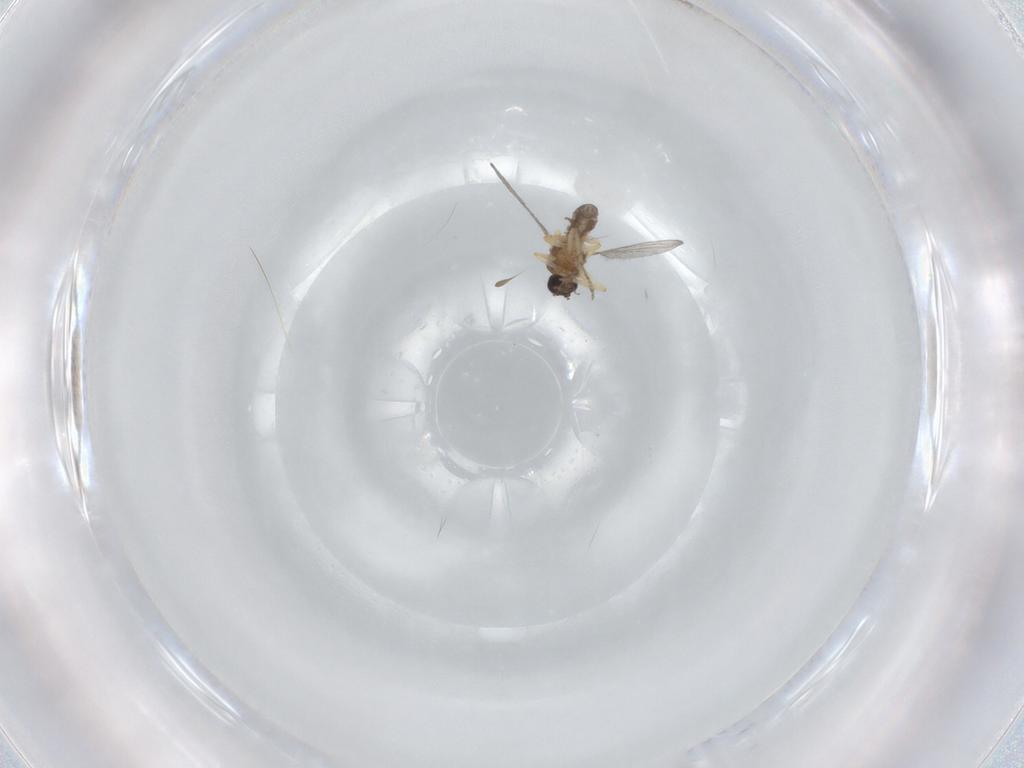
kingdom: Animalia
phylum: Arthropoda
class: Insecta
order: Diptera
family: Ceratopogonidae
